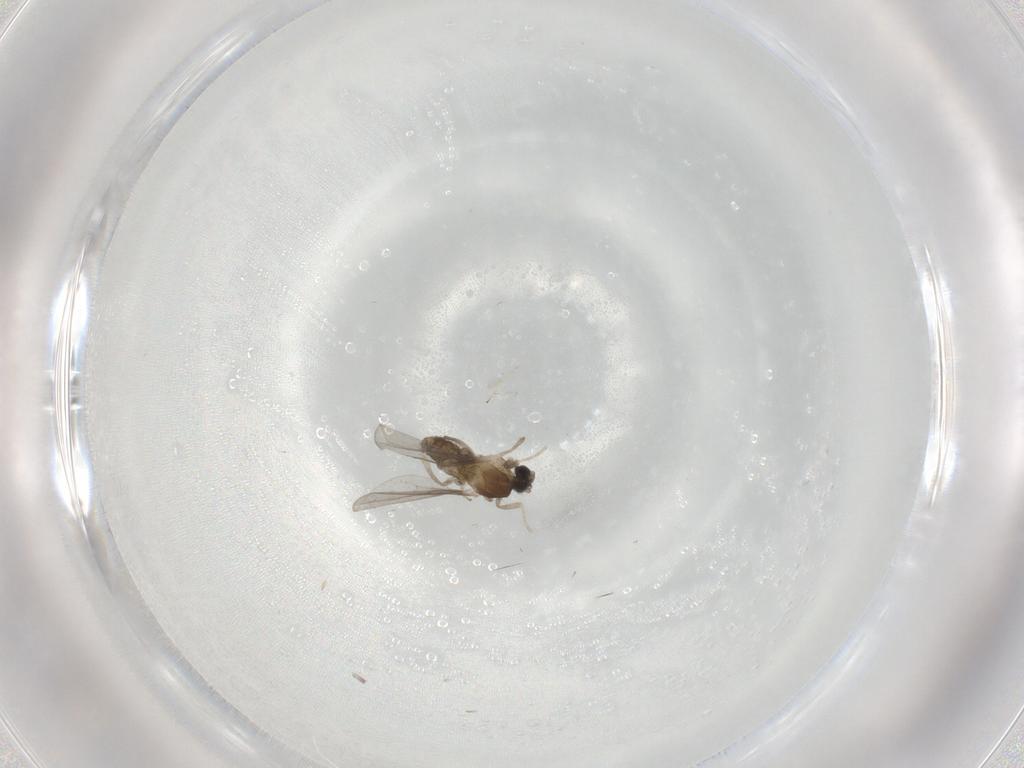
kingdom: Animalia
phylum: Arthropoda
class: Insecta
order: Diptera
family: Cecidomyiidae
